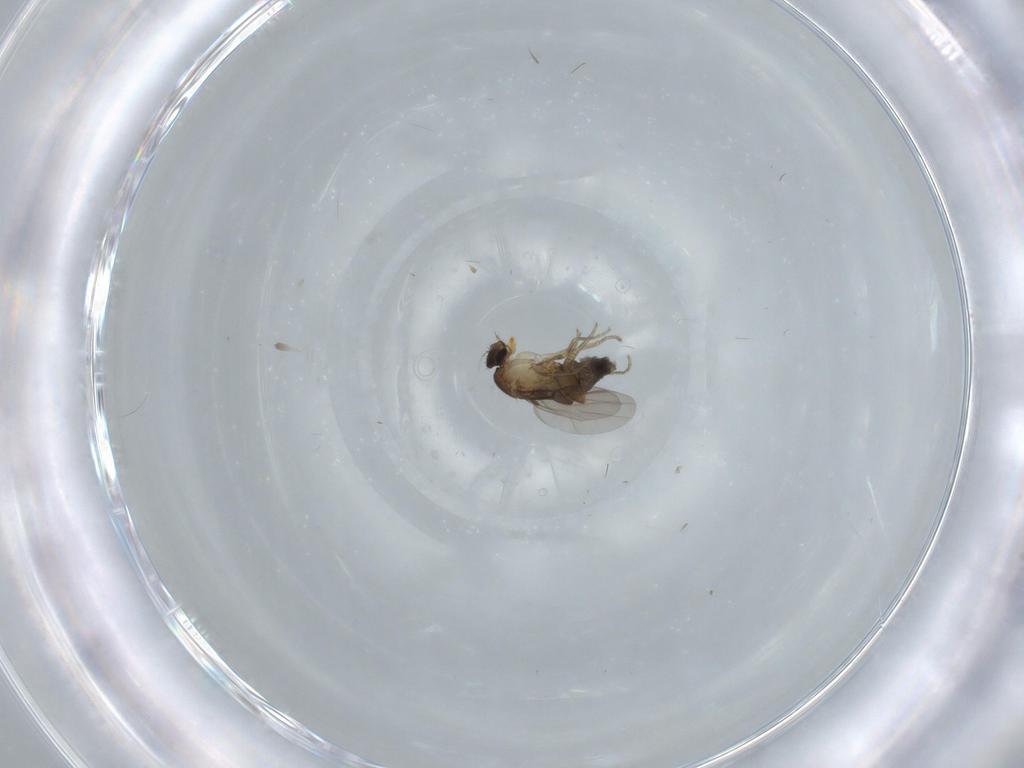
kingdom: Animalia
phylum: Arthropoda
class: Insecta
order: Diptera
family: Phoridae
